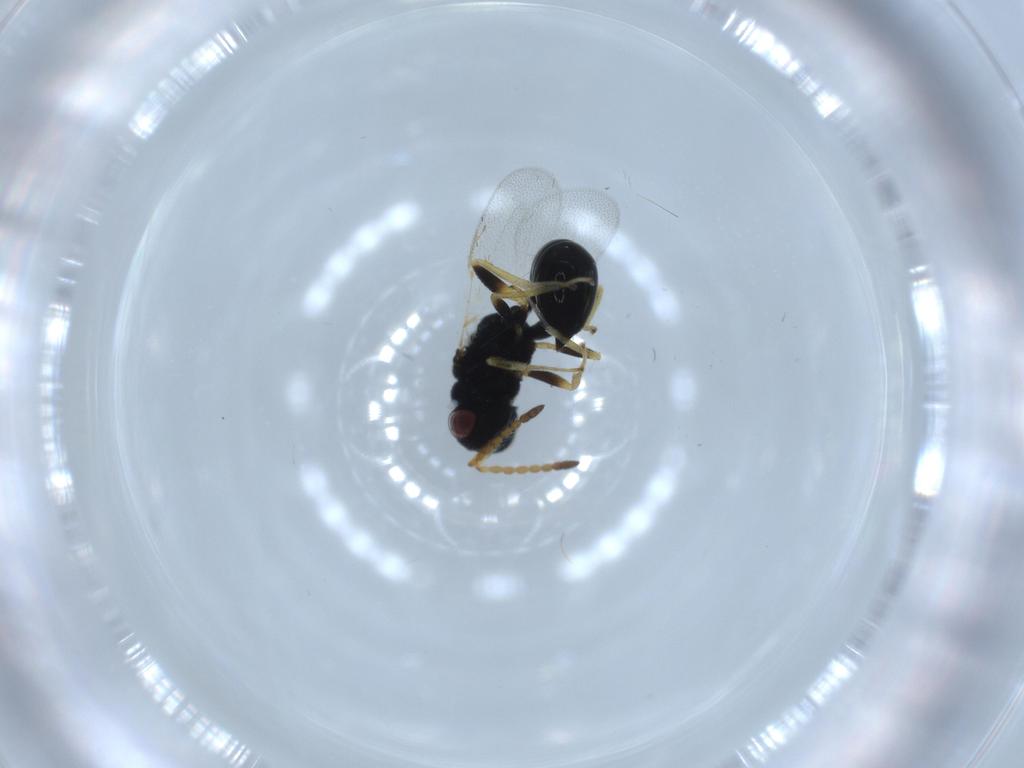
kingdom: Animalia
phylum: Arthropoda
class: Insecta
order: Hymenoptera
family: Eurytomidae
